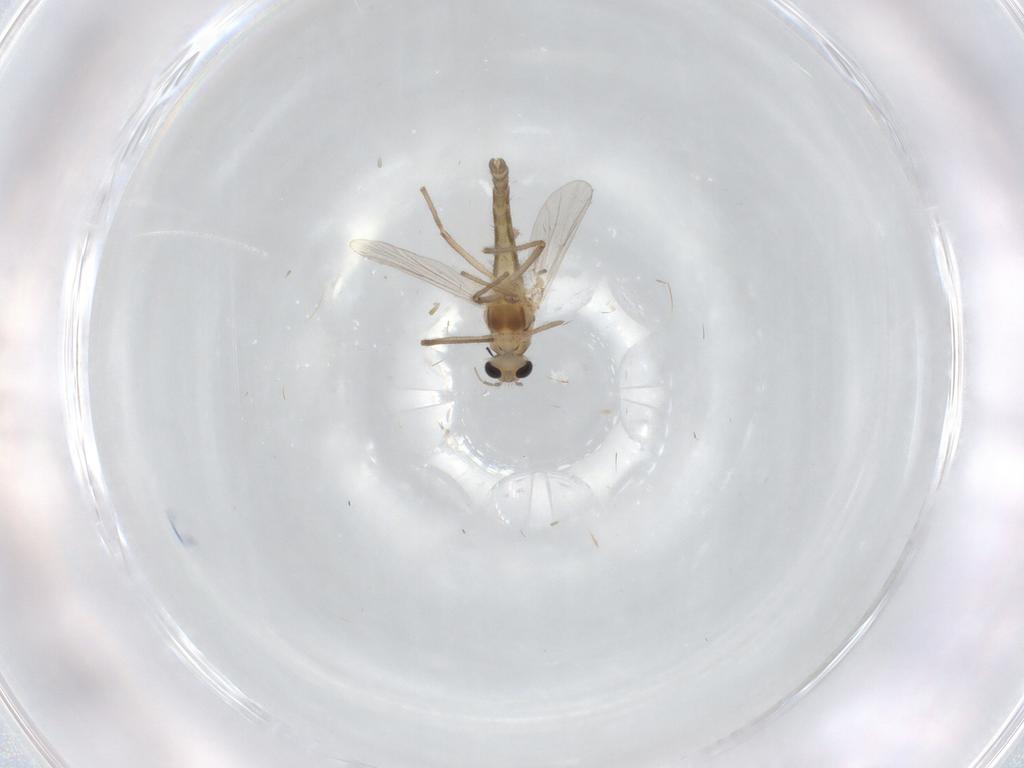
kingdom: Animalia
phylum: Arthropoda
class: Insecta
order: Diptera
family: Chironomidae
